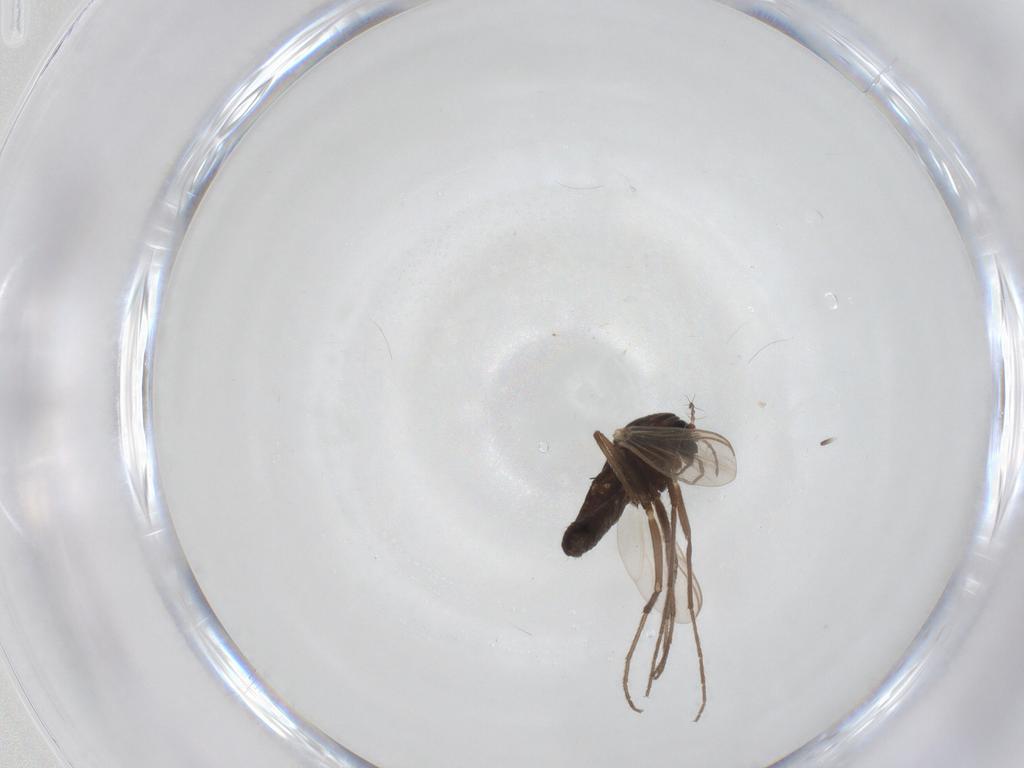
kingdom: Animalia
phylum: Arthropoda
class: Insecta
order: Diptera
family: Chironomidae
